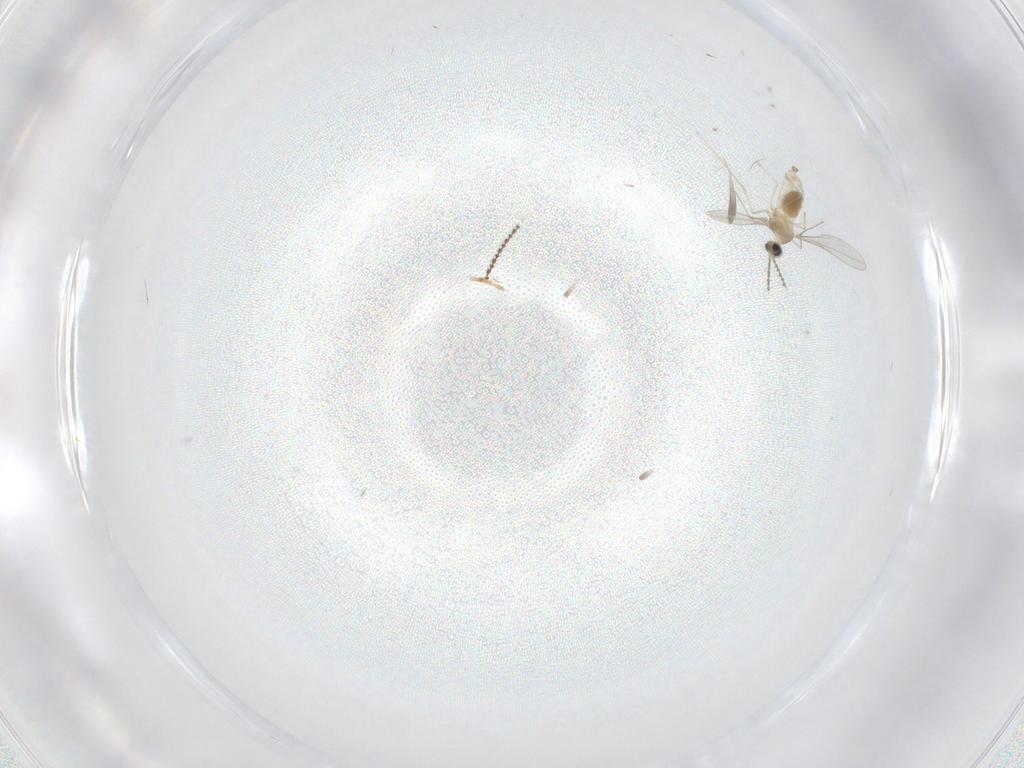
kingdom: Animalia
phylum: Arthropoda
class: Insecta
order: Diptera
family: Cecidomyiidae
